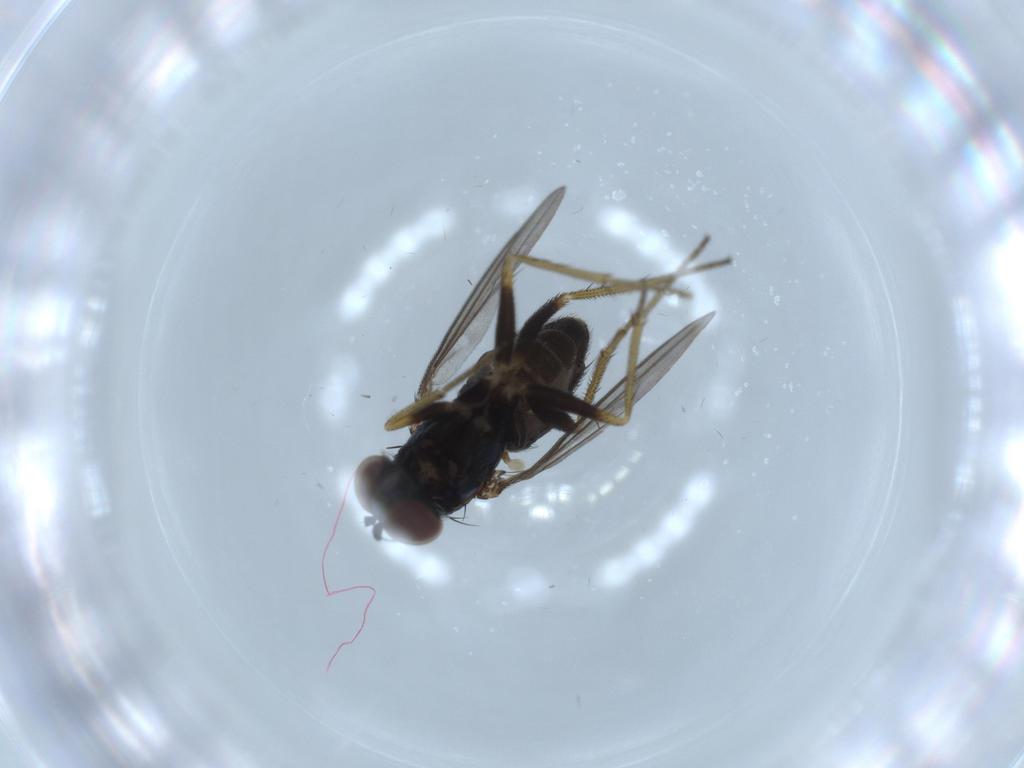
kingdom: Animalia
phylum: Arthropoda
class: Insecta
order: Diptera
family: Dolichopodidae
